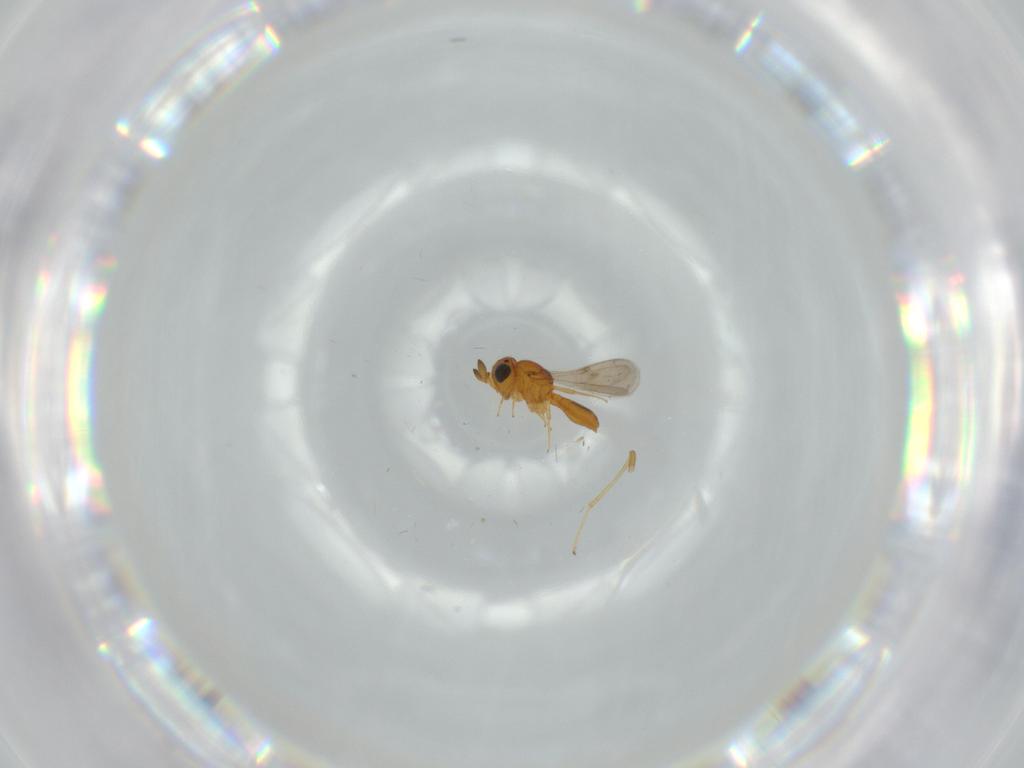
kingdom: Animalia
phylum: Arthropoda
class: Insecta
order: Hymenoptera
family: Scelionidae
